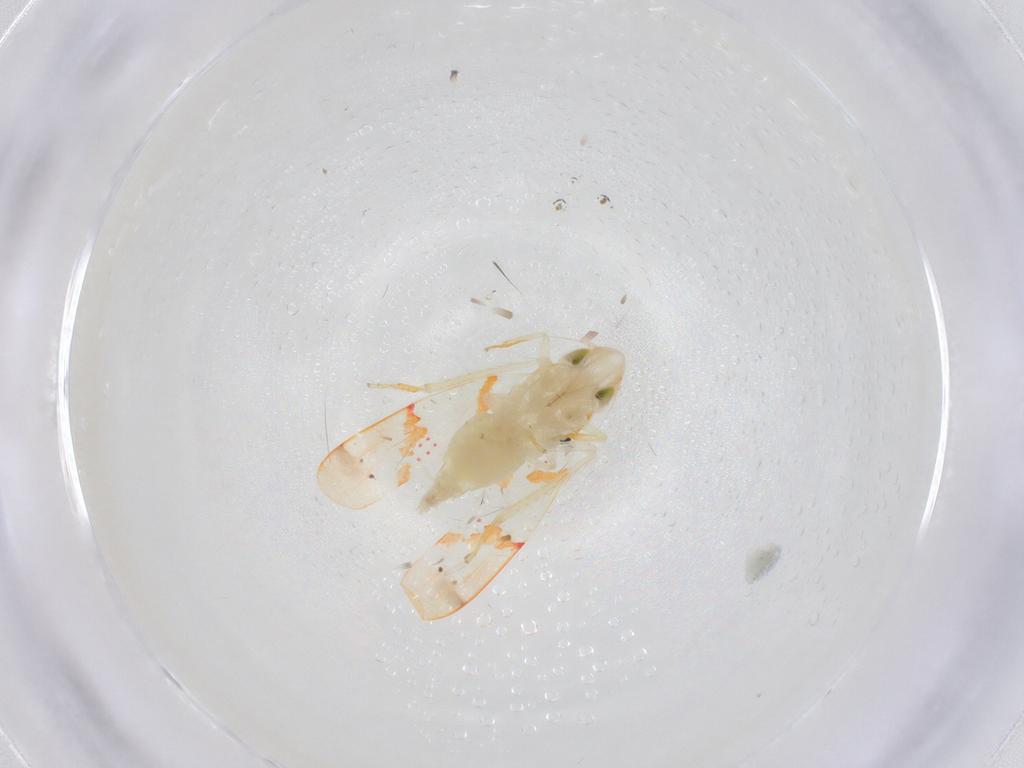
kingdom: Animalia
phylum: Arthropoda
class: Insecta
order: Hemiptera
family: Cicadellidae
